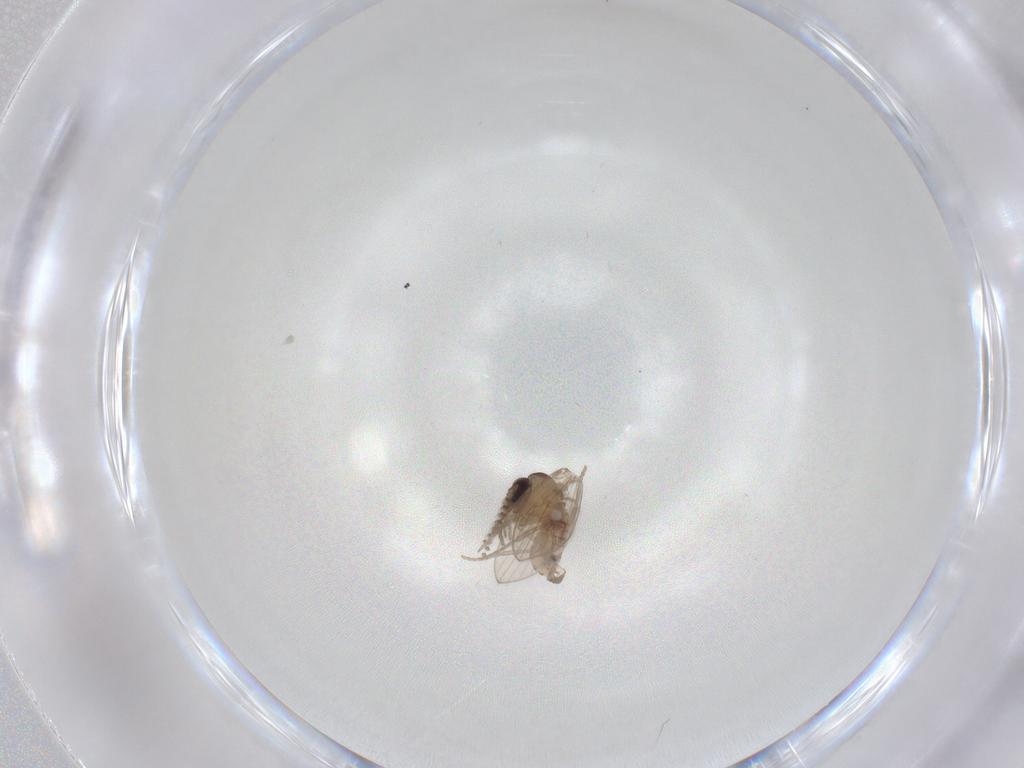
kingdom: Animalia
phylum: Arthropoda
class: Insecta
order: Diptera
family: Psychodidae
